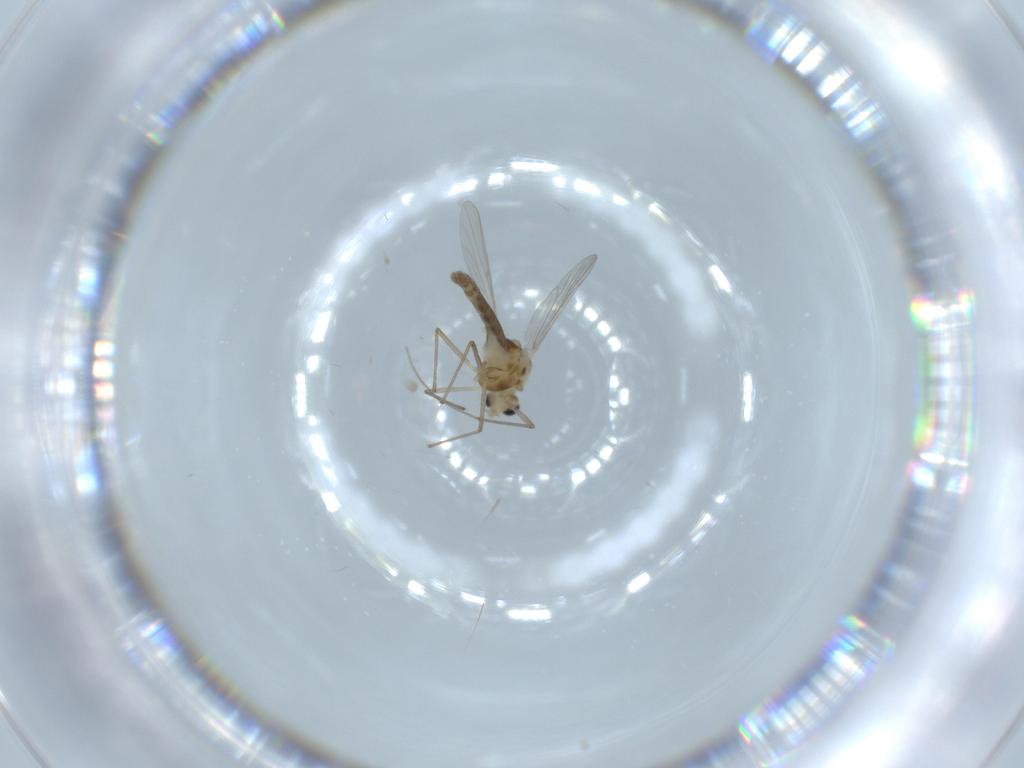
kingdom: Animalia
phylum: Arthropoda
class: Insecta
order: Diptera
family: Chironomidae
